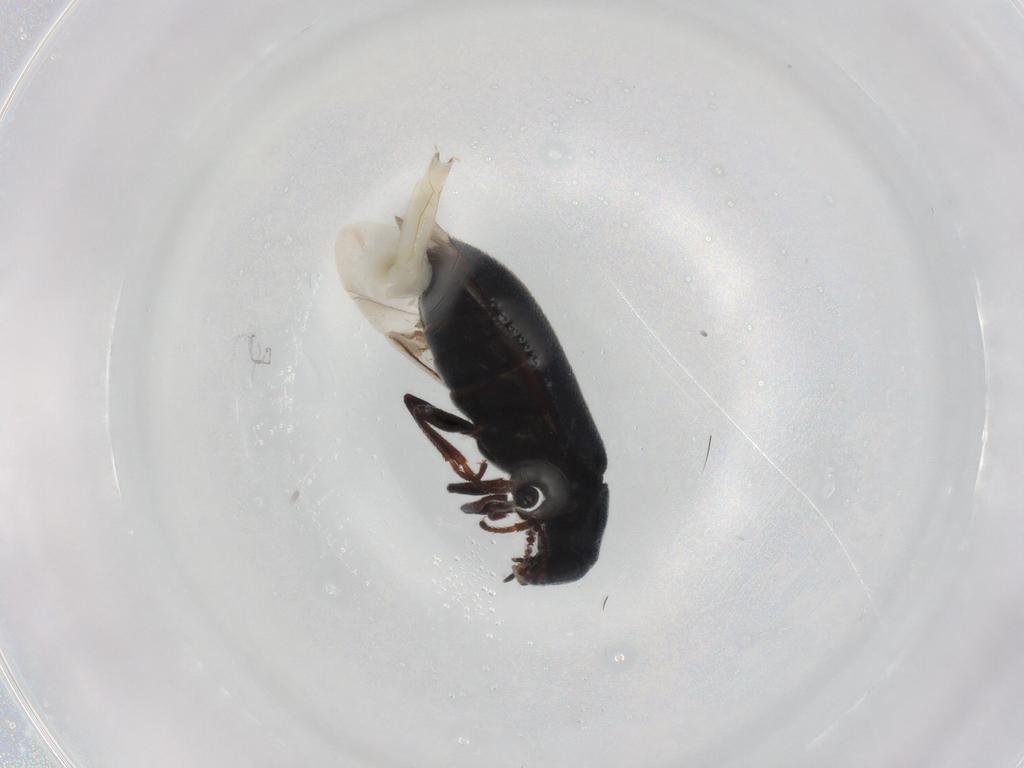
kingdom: Animalia
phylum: Arthropoda
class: Insecta
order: Coleoptera
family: Melyridae
